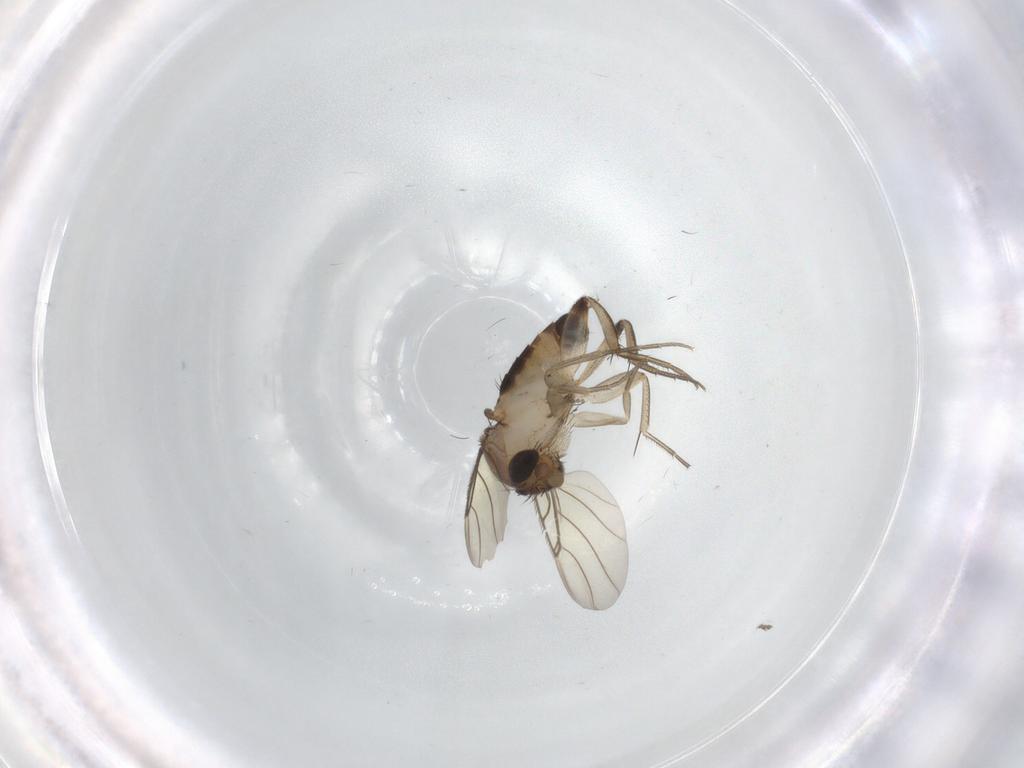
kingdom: Animalia
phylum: Arthropoda
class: Insecta
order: Diptera
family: Phoridae
